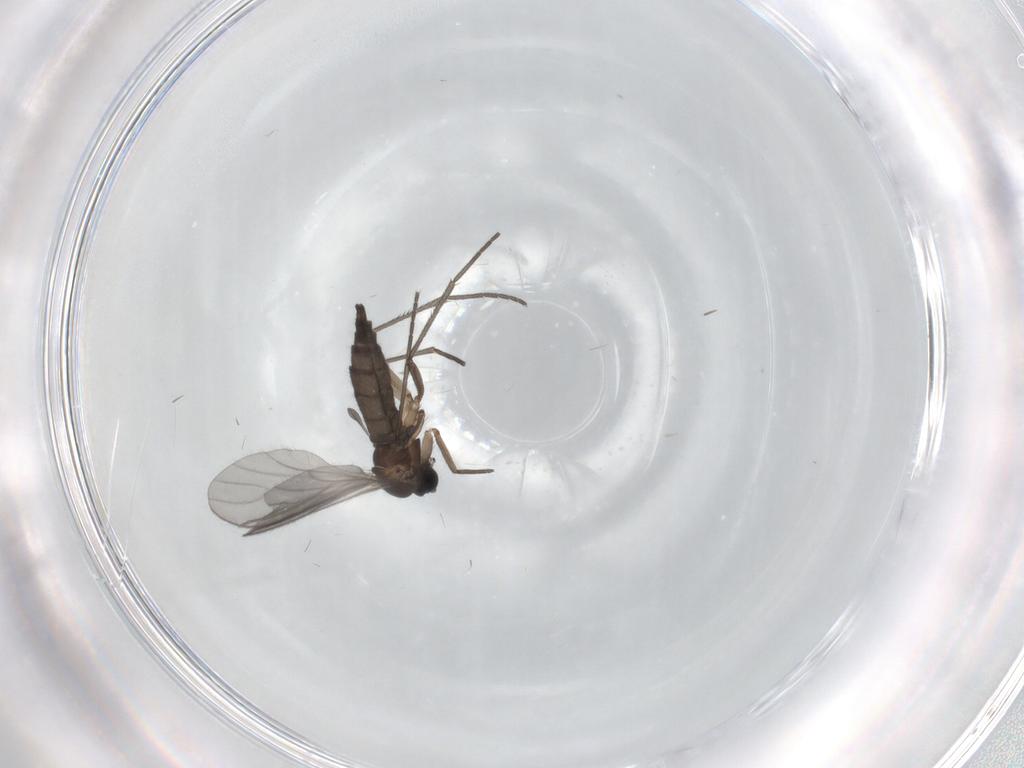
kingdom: Animalia
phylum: Arthropoda
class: Insecta
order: Diptera
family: Sciaridae
